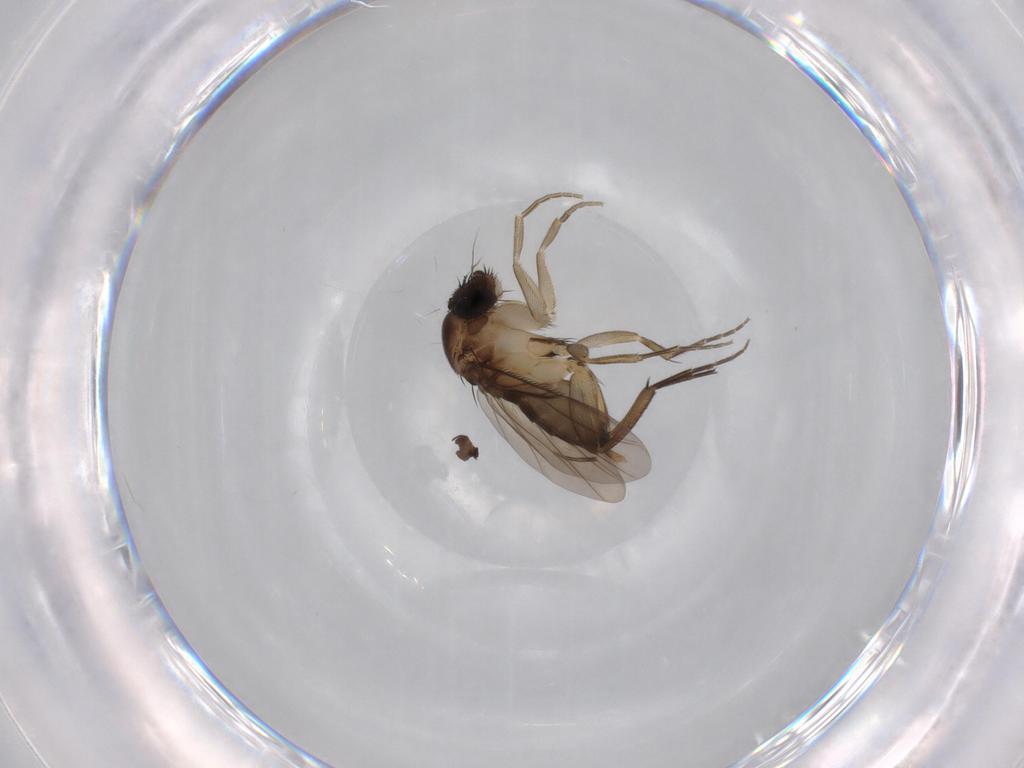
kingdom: Animalia
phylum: Arthropoda
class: Insecta
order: Diptera
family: Phoridae
